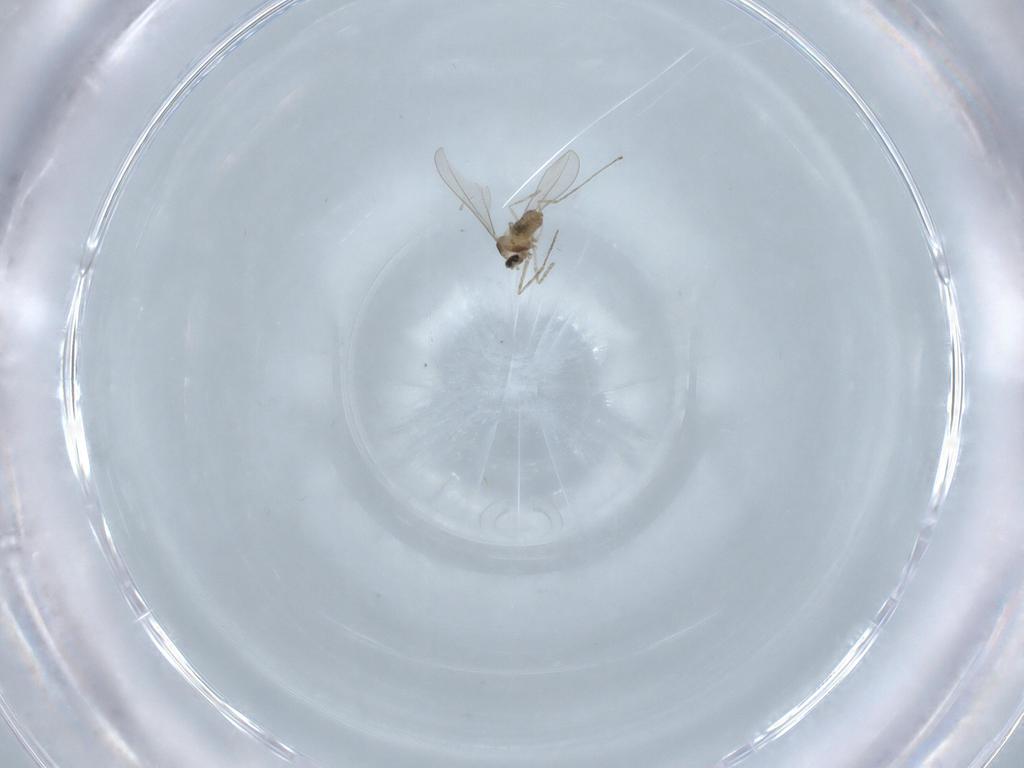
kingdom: Animalia
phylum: Arthropoda
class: Insecta
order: Diptera
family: Cecidomyiidae
